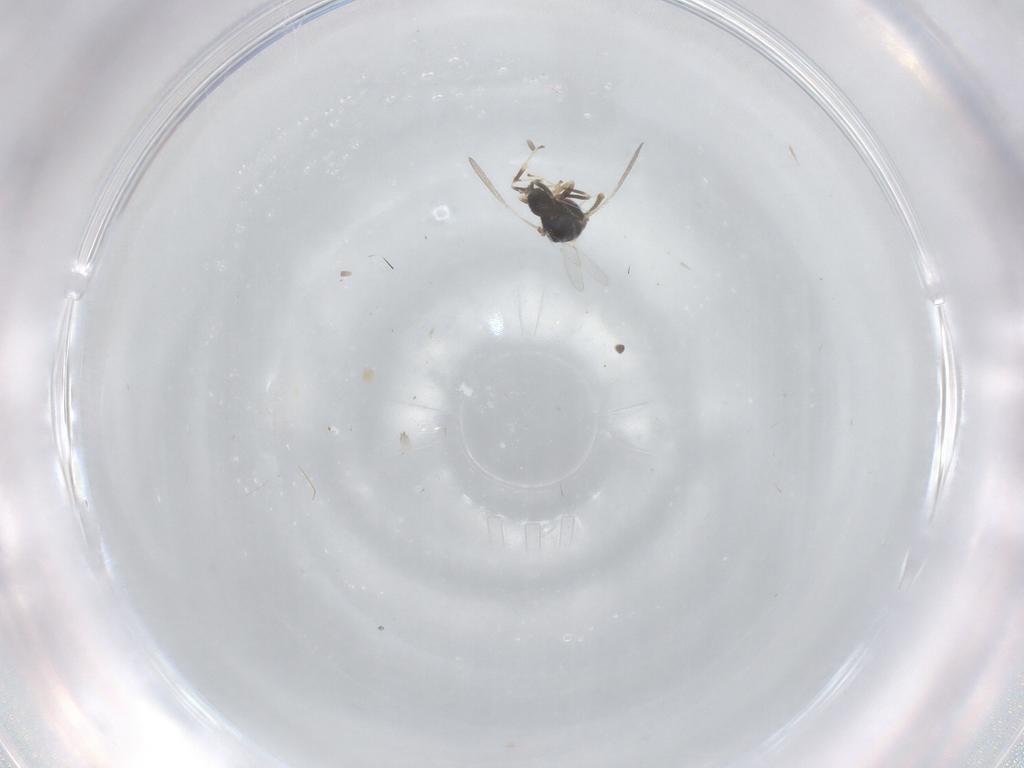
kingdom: Animalia
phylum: Arthropoda
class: Insecta
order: Hymenoptera
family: Pteromalidae
